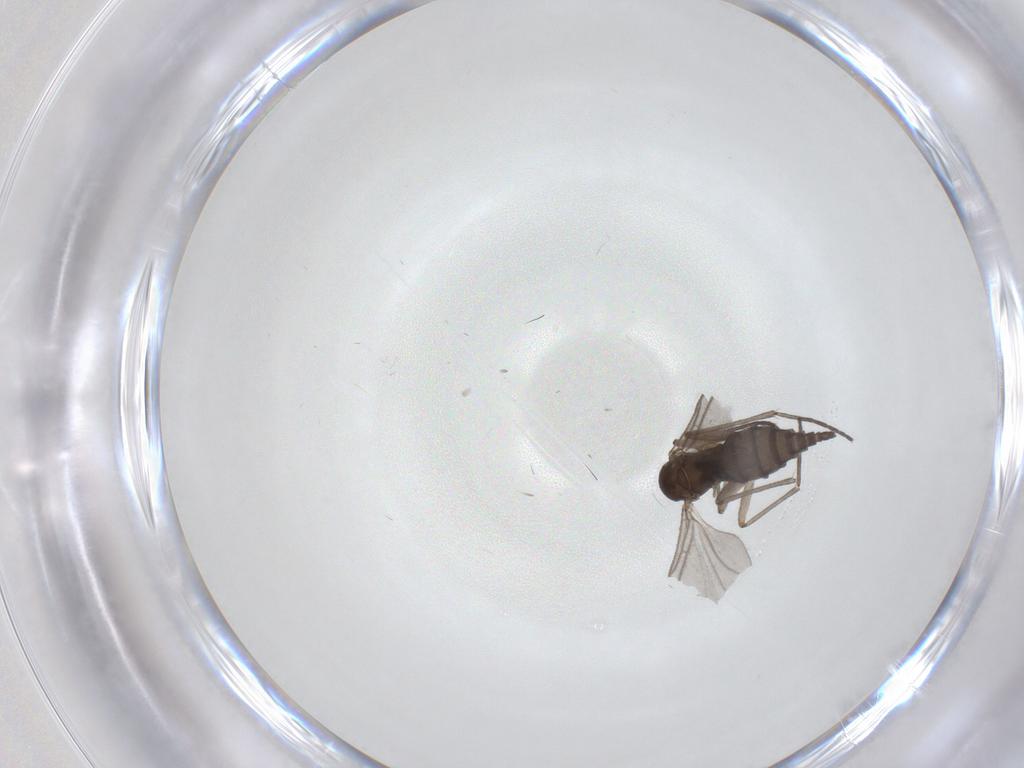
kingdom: Animalia
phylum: Arthropoda
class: Insecta
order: Diptera
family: Sciaridae
